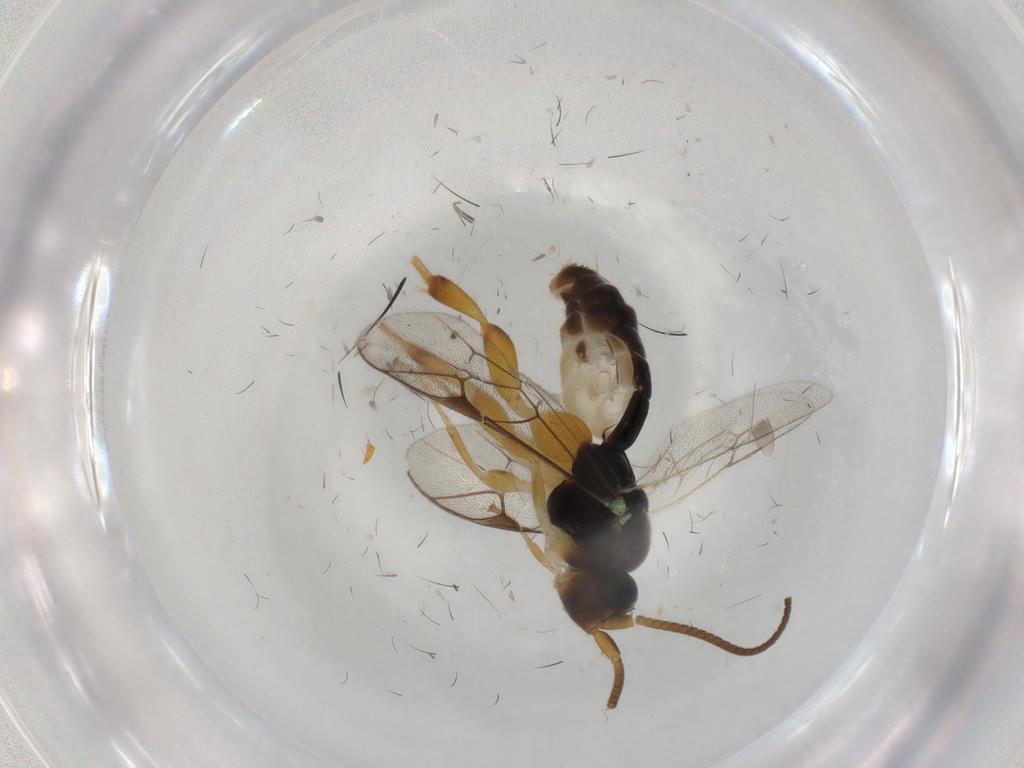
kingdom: Animalia
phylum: Arthropoda
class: Insecta
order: Hymenoptera
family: Ichneumonidae
